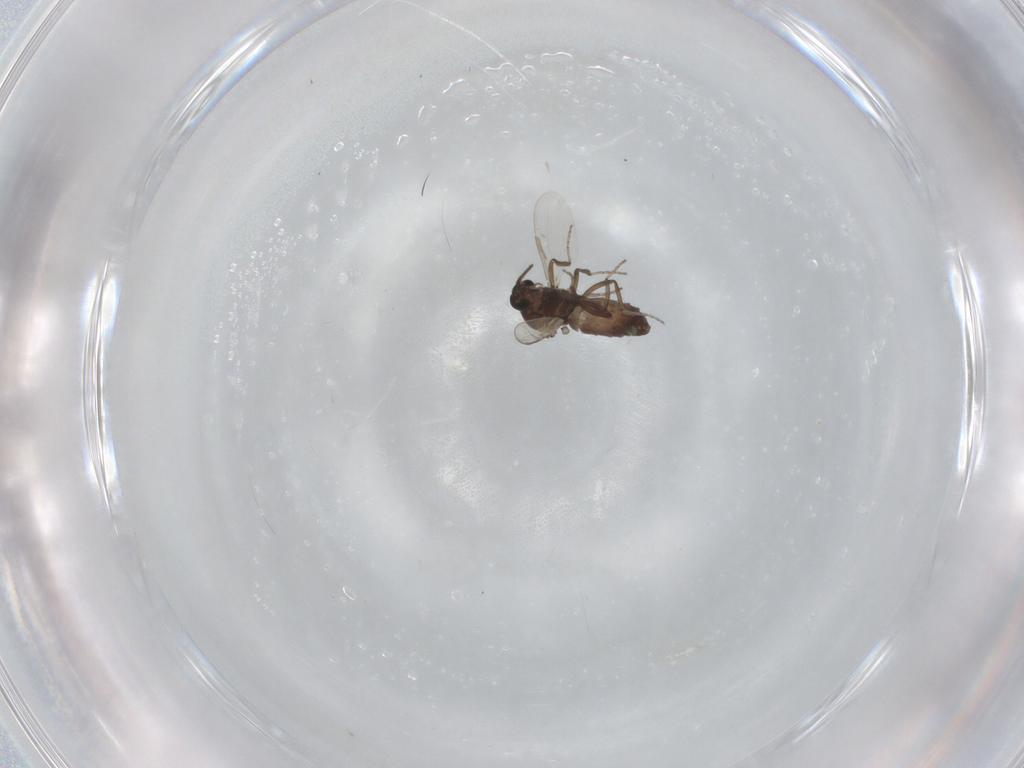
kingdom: Animalia
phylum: Arthropoda
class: Insecta
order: Diptera
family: Ceratopogonidae
